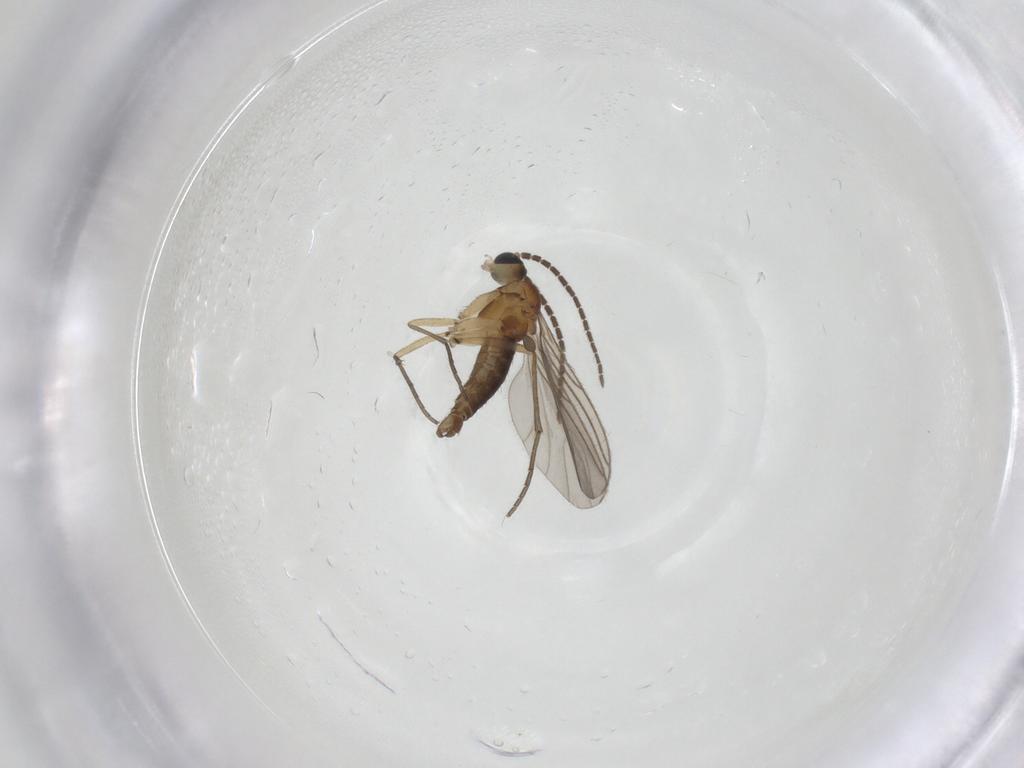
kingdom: Animalia
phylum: Arthropoda
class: Insecta
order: Diptera
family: Sciaridae
